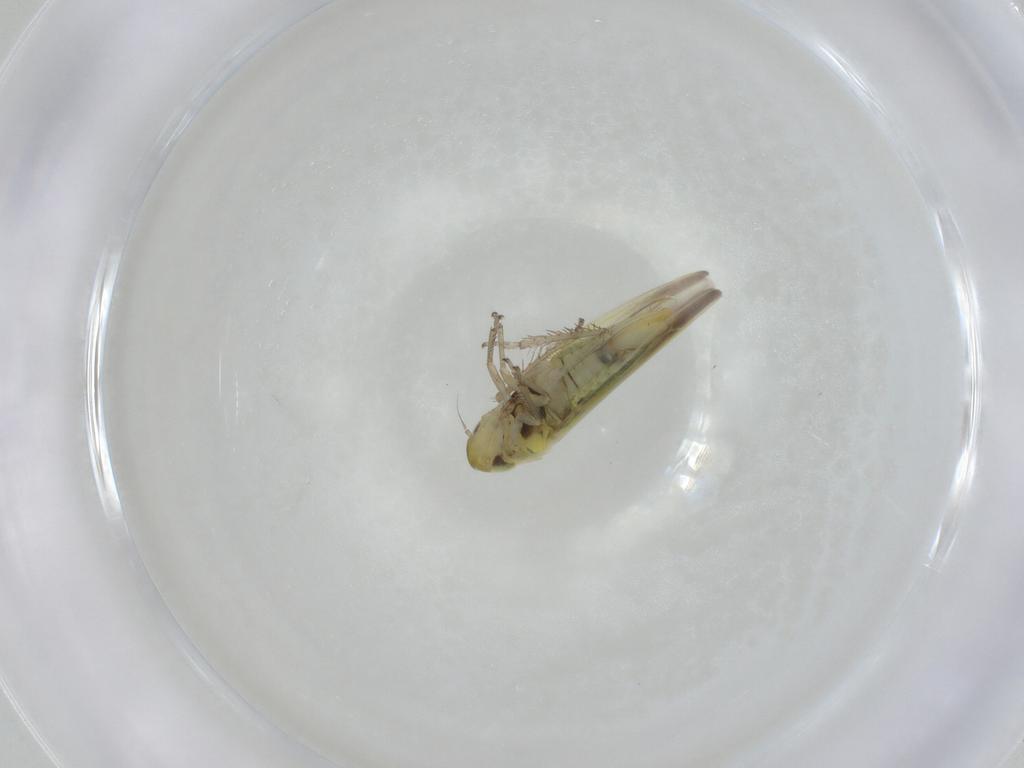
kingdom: Animalia
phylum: Arthropoda
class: Insecta
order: Hemiptera
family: Cicadellidae
